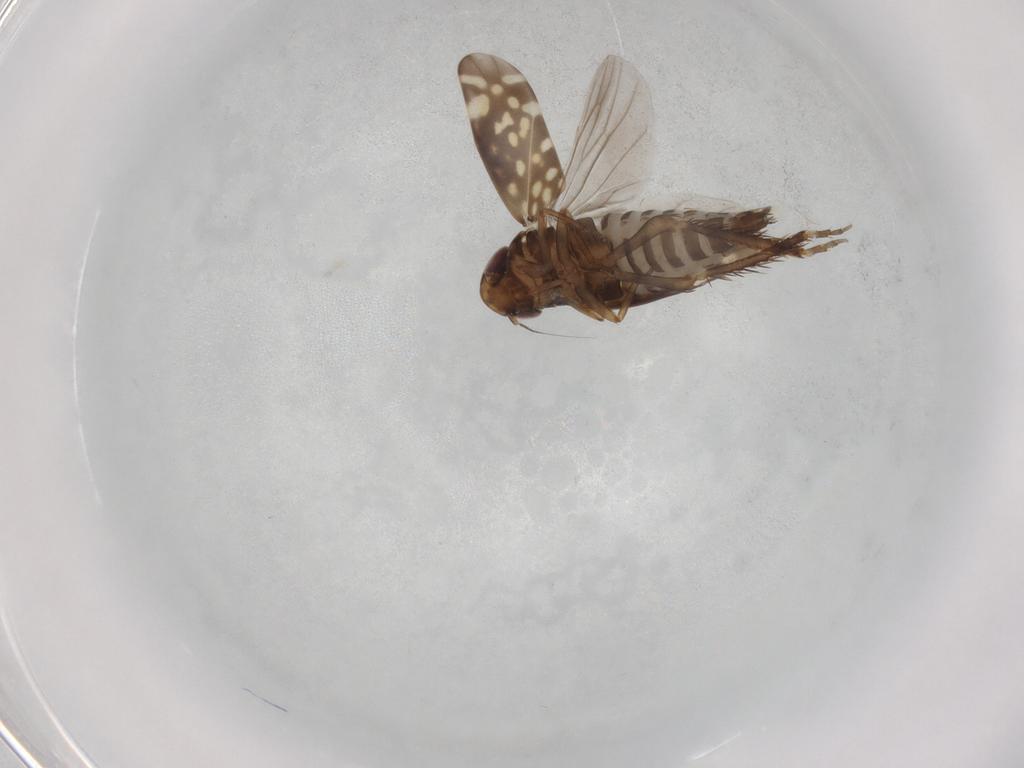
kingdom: Animalia
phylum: Arthropoda
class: Insecta
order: Hemiptera
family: Cicadellidae
